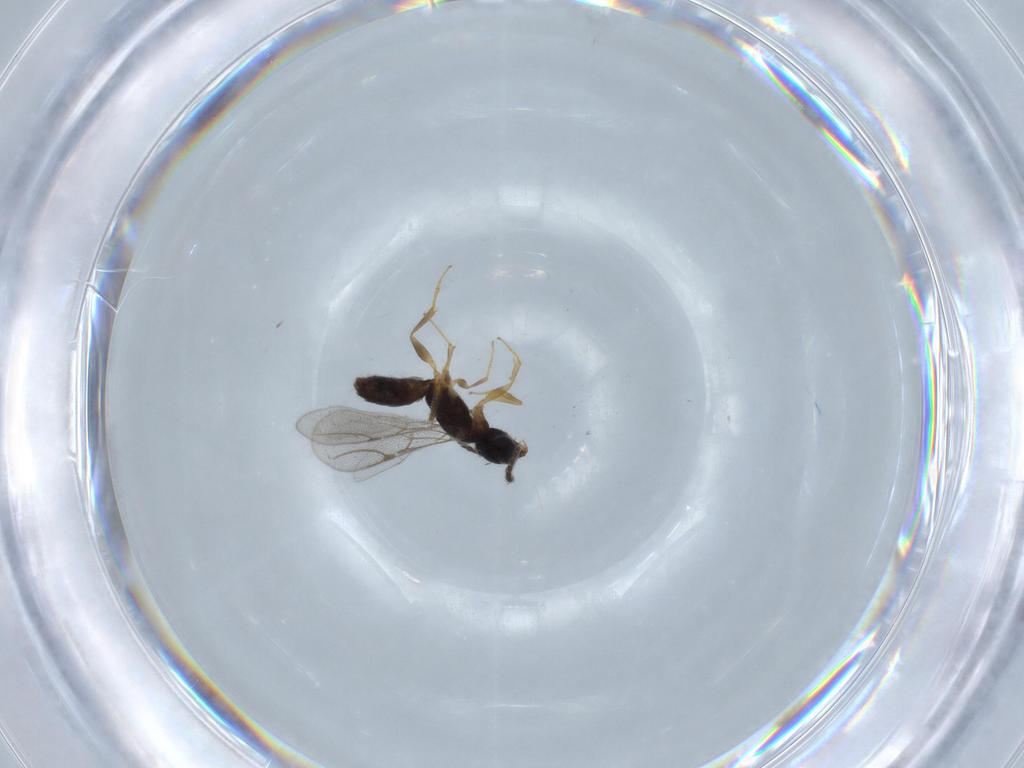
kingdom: Animalia
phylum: Arthropoda
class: Insecta
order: Hymenoptera
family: Bethylidae
